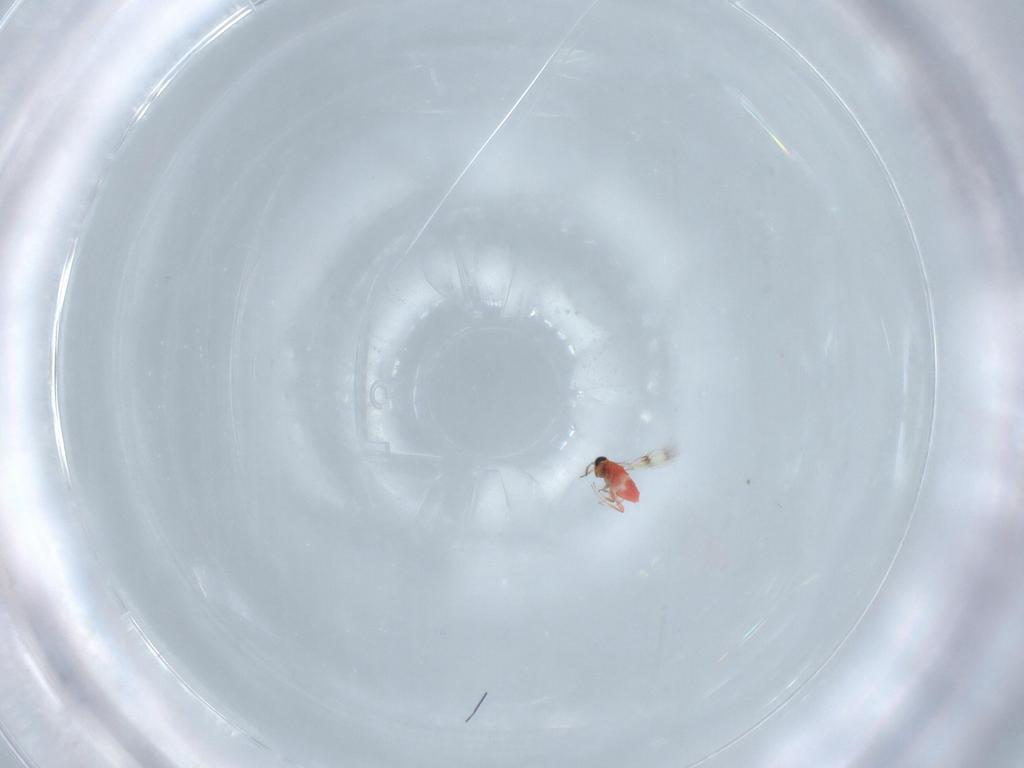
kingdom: Animalia
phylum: Arthropoda
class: Insecta
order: Hymenoptera
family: Trichogrammatidae
